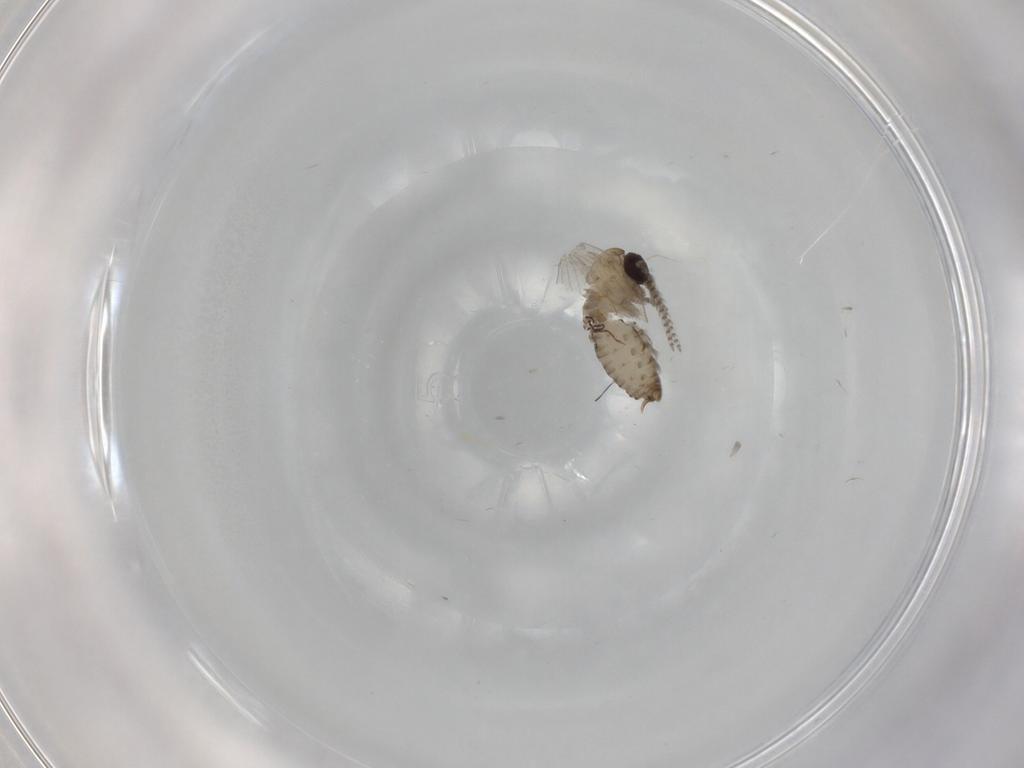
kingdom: Animalia
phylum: Arthropoda
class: Insecta
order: Diptera
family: Psychodidae
